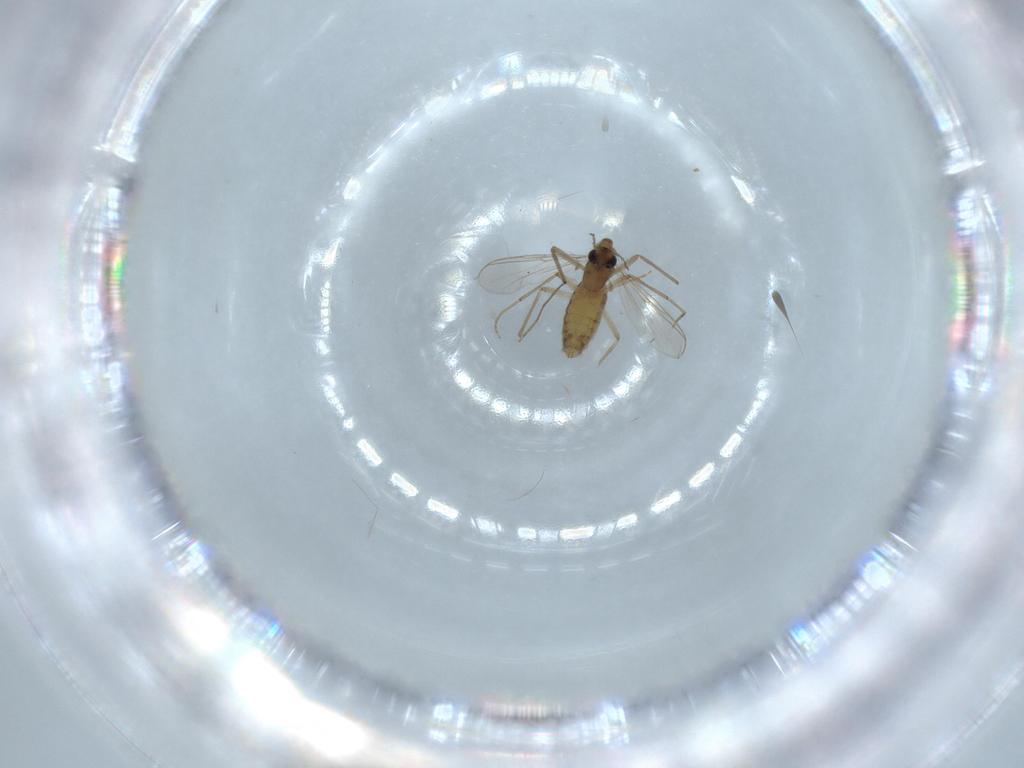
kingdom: Animalia
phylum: Arthropoda
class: Insecta
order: Diptera
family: Chironomidae
